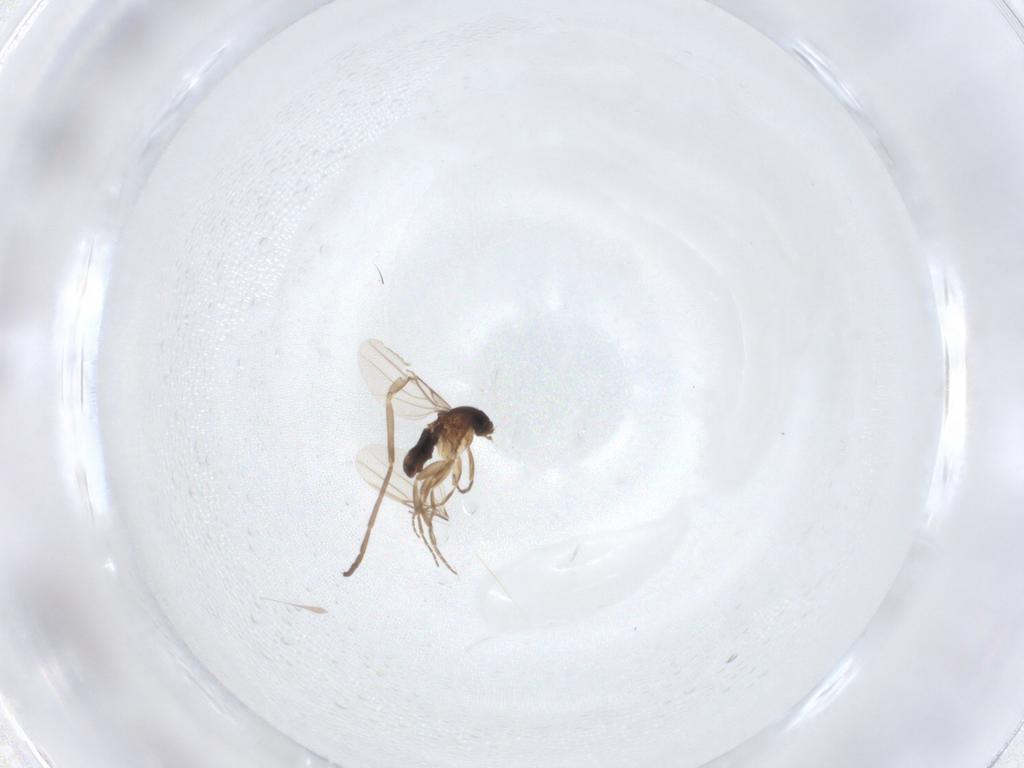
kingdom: Animalia
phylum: Arthropoda
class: Insecta
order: Diptera
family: Phoridae
